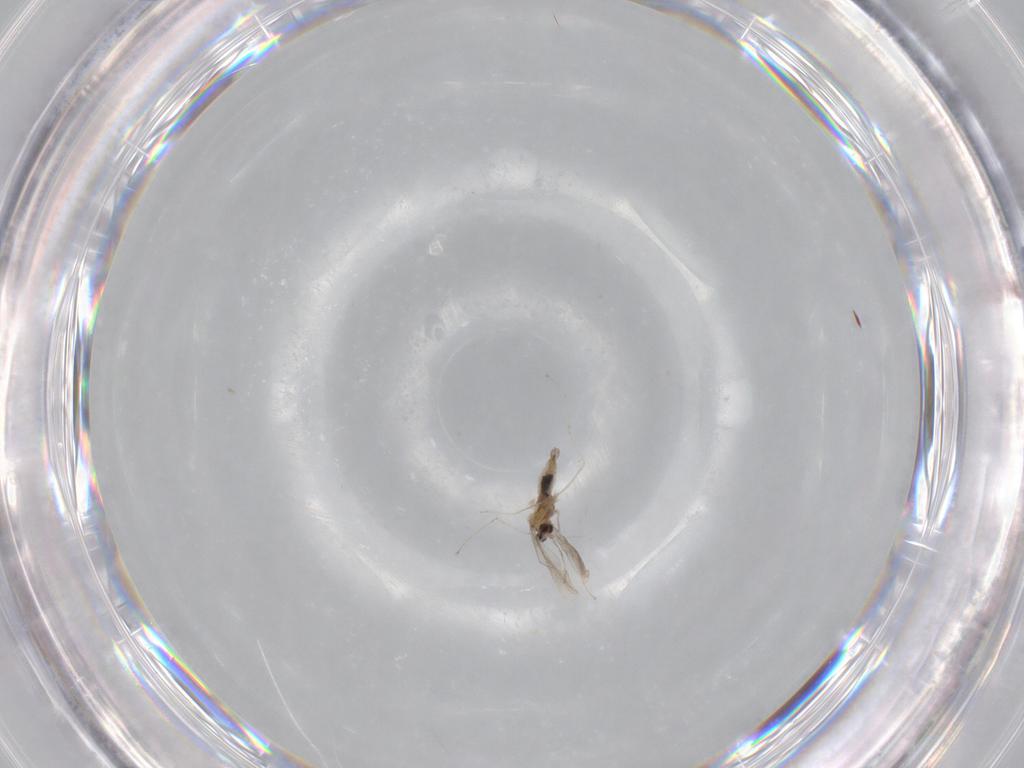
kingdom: Animalia
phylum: Arthropoda
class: Insecta
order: Diptera
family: Cecidomyiidae
